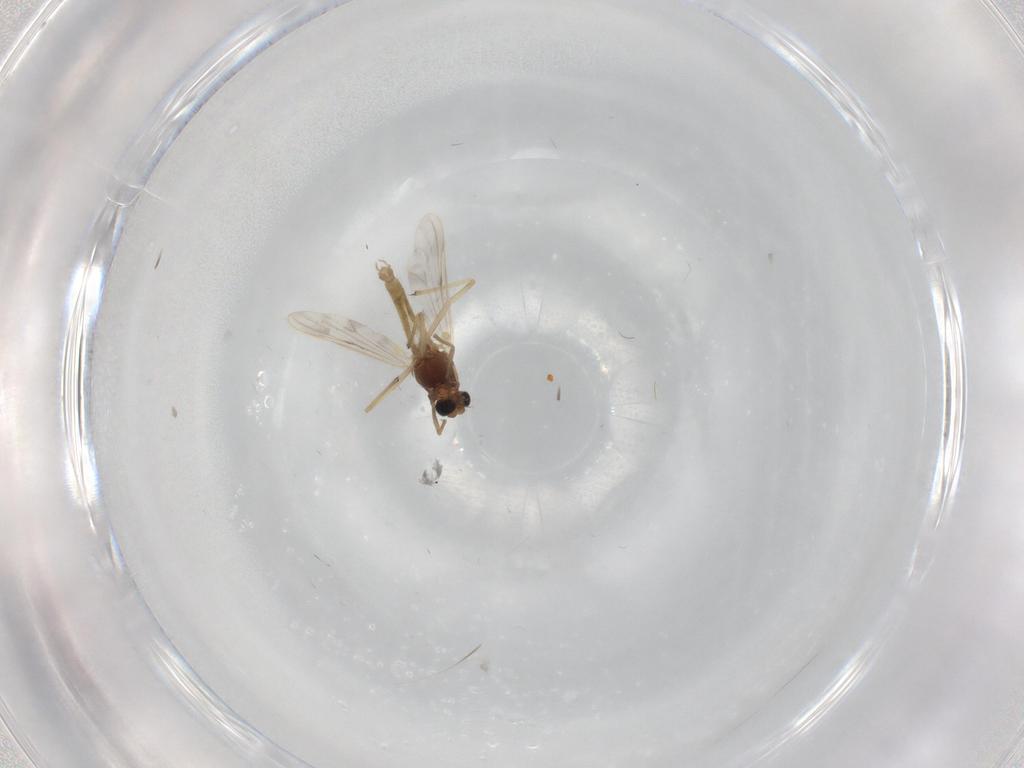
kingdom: Animalia
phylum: Arthropoda
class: Insecta
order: Diptera
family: Chironomidae
